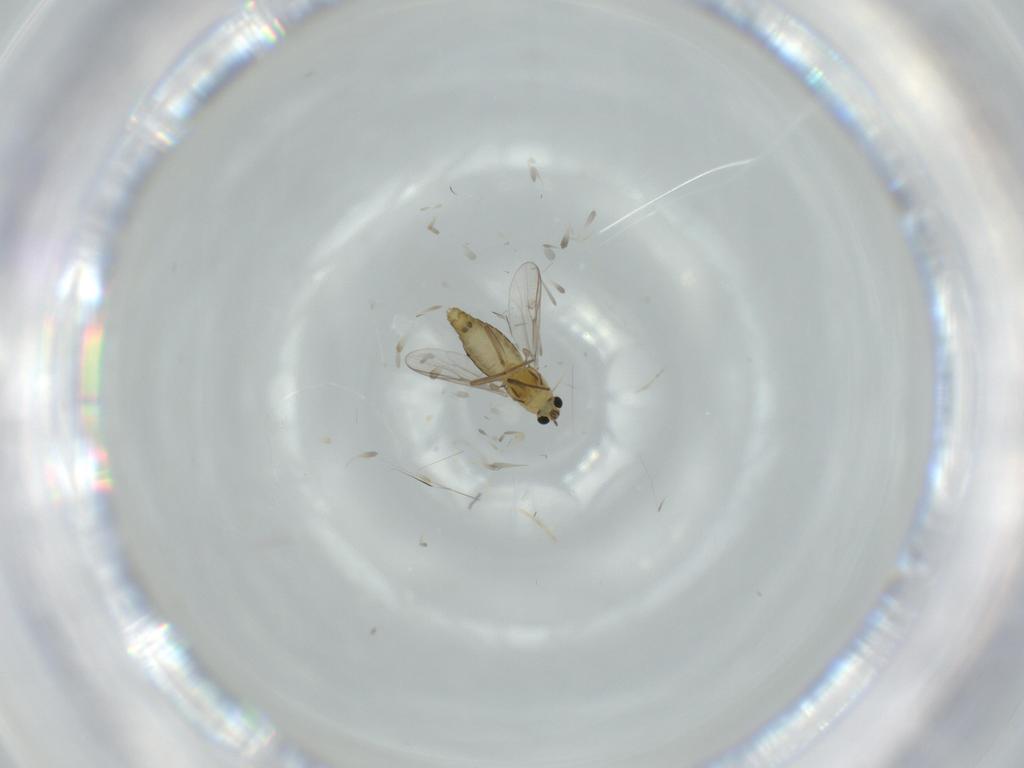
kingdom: Animalia
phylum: Arthropoda
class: Insecta
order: Diptera
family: Chironomidae
